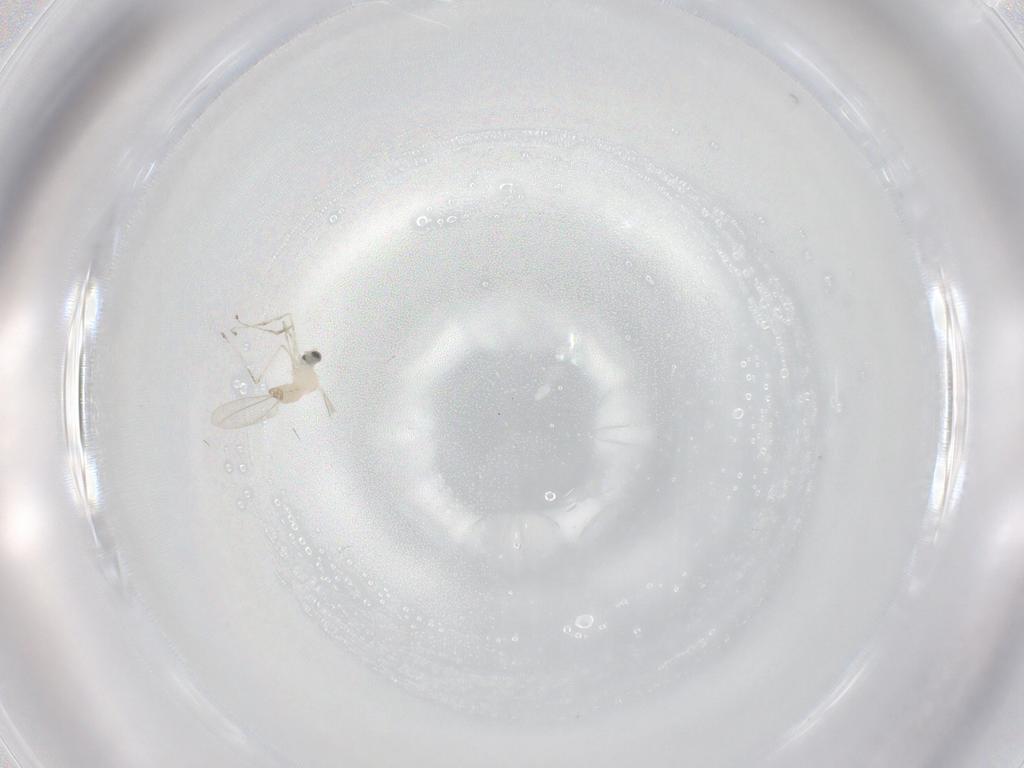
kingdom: Animalia
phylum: Arthropoda
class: Insecta
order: Diptera
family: Cecidomyiidae
